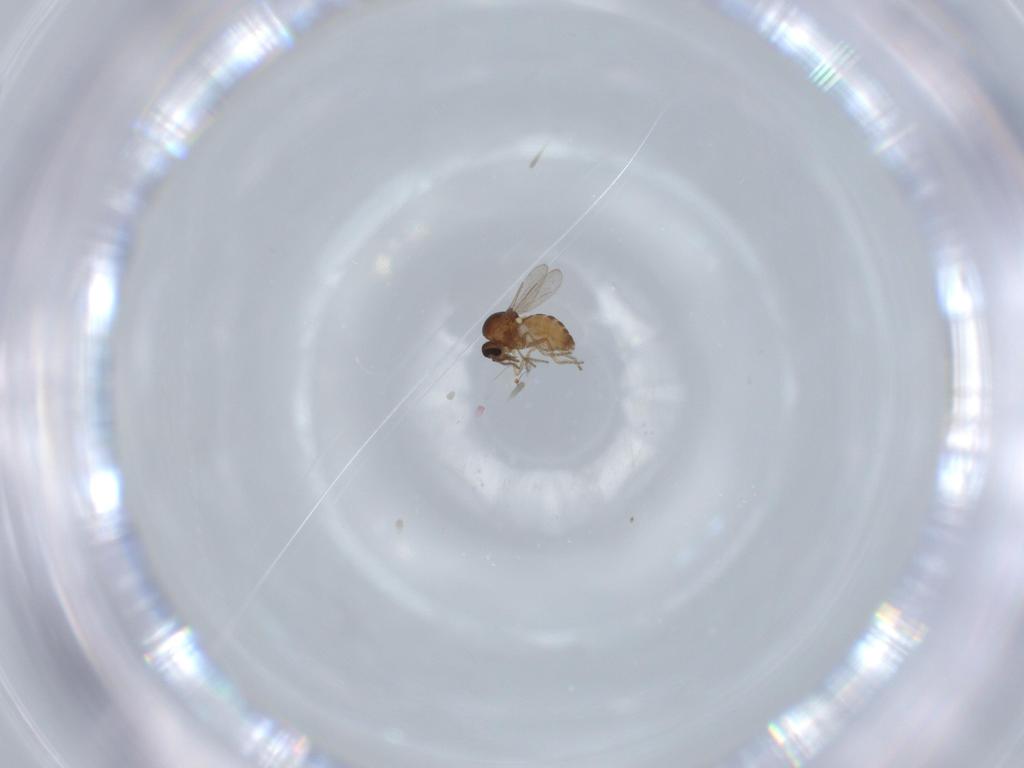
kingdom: Animalia
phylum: Arthropoda
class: Insecta
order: Diptera
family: Ceratopogonidae
